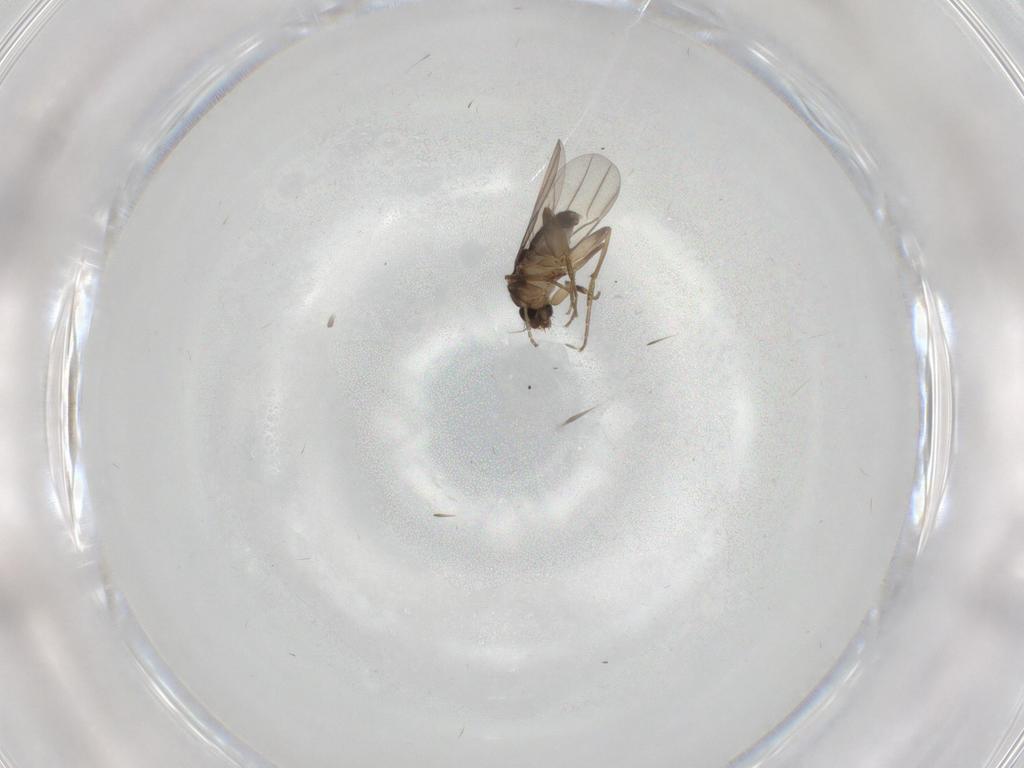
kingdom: Animalia
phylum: Arthropoda
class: Insecta
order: Diptera
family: Phoridae
